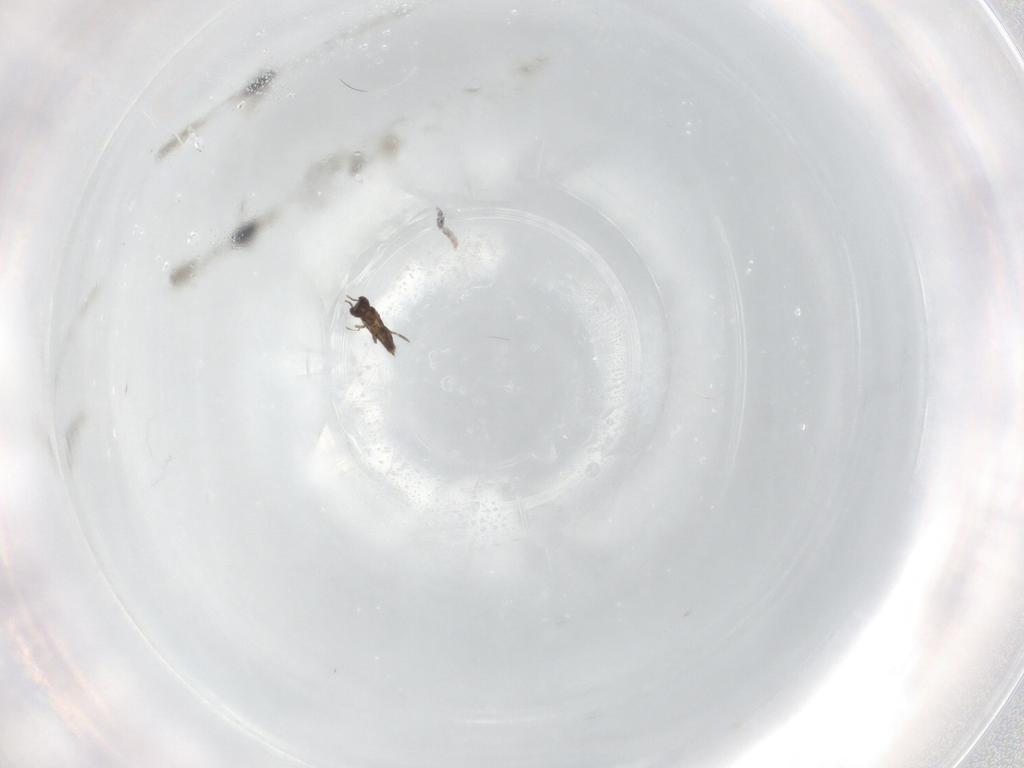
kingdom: Animalia
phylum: Arthropoda
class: Insecta
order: Hymenoptera
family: Mymaridae
